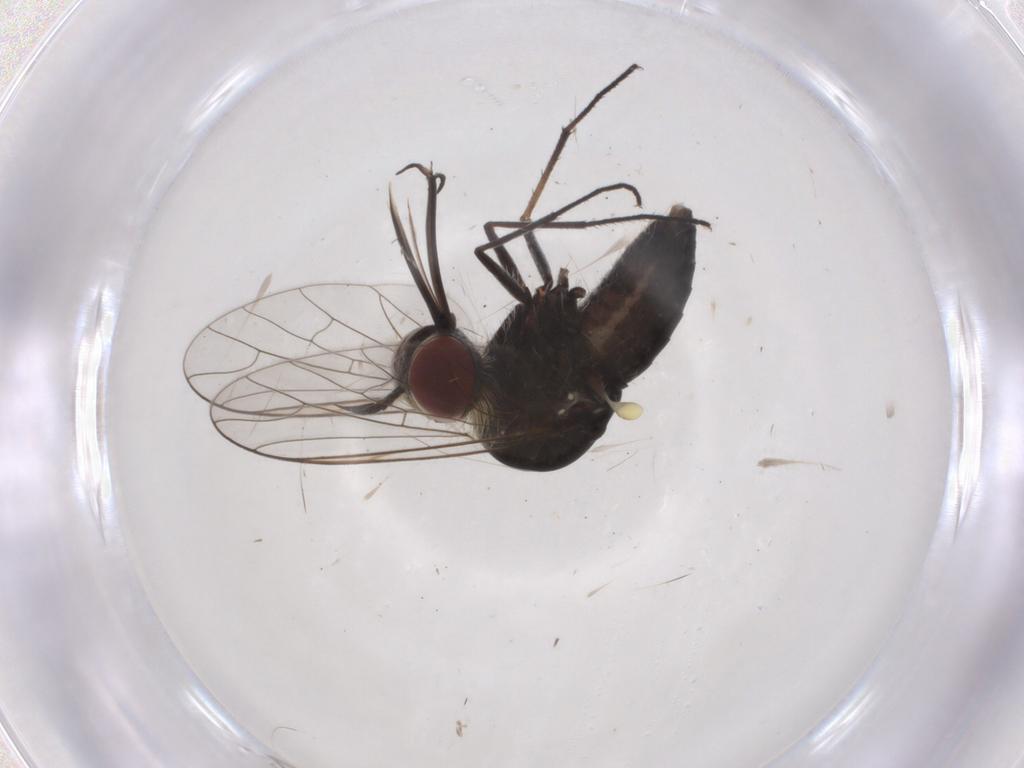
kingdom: Animalia
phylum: Arthropoda
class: Insecta
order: Diptera
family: Bombyliidae
